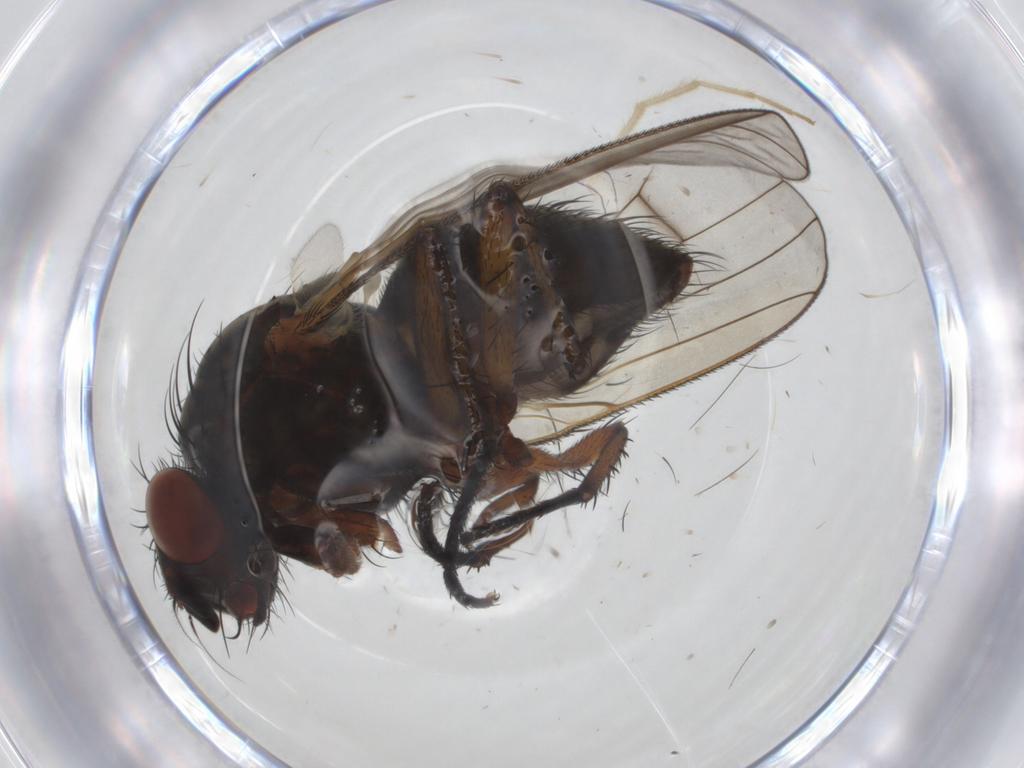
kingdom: Animalia
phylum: Arthropoda
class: Insecta
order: Diptera
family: Anthomyiidae
